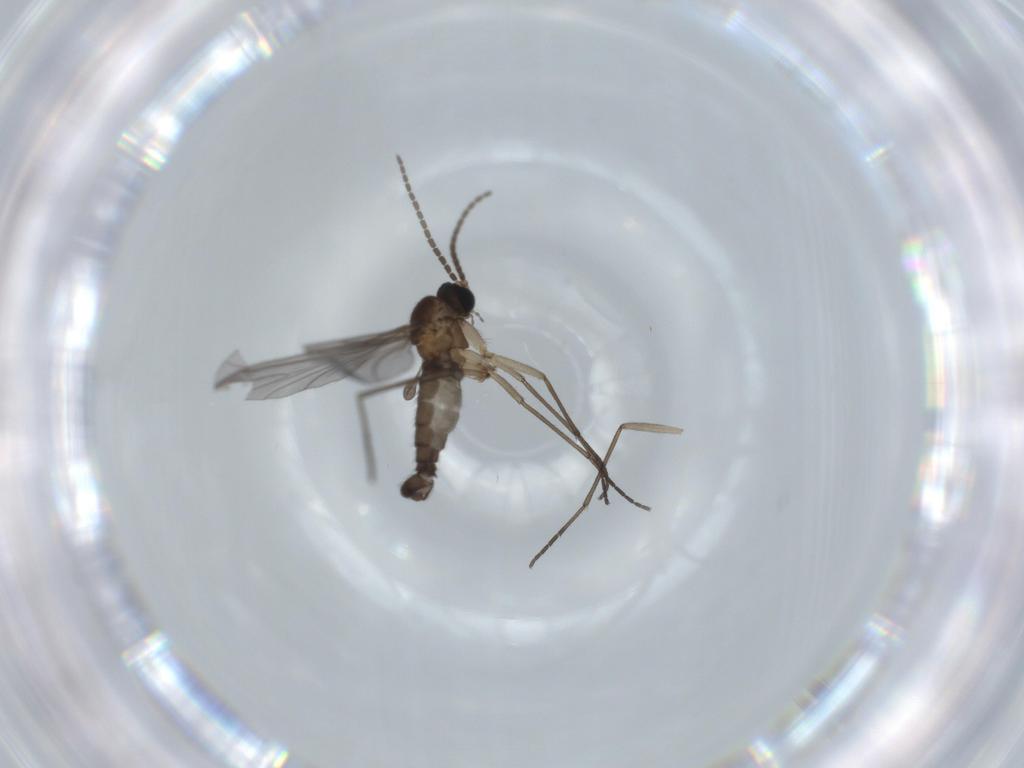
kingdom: Animalia
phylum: Arthropoda
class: Insecta
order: Diptera
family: Sciaridae
